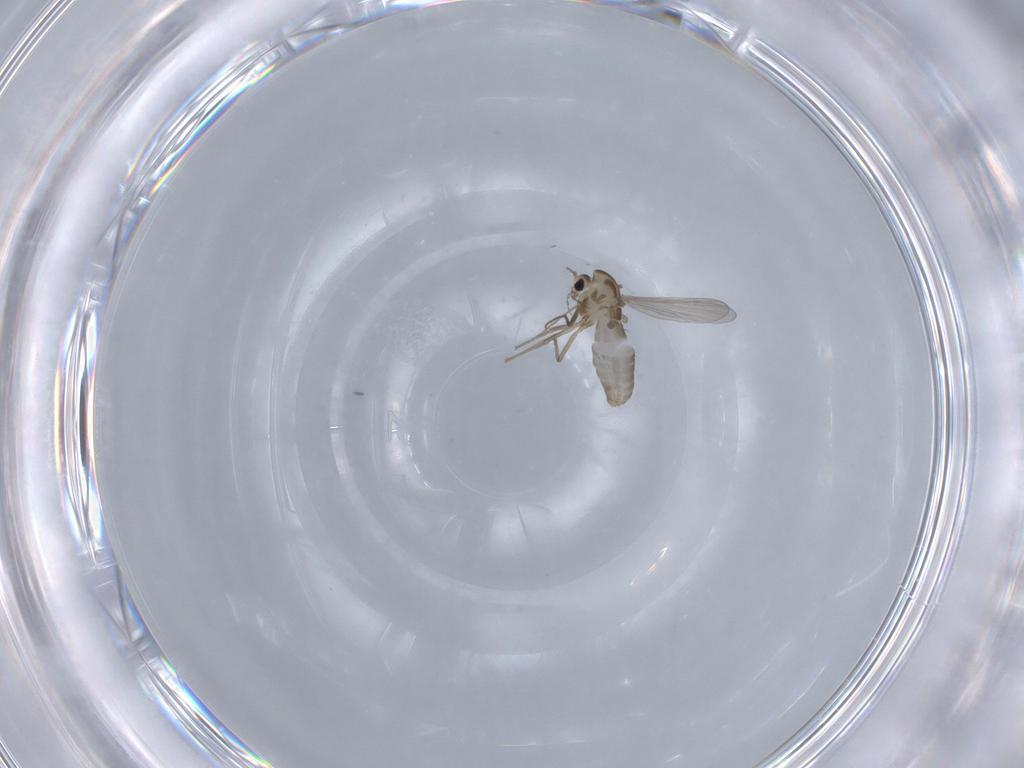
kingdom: Animalia
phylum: Arthropoda
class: Insecta
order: Diptera
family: Chironomidae
